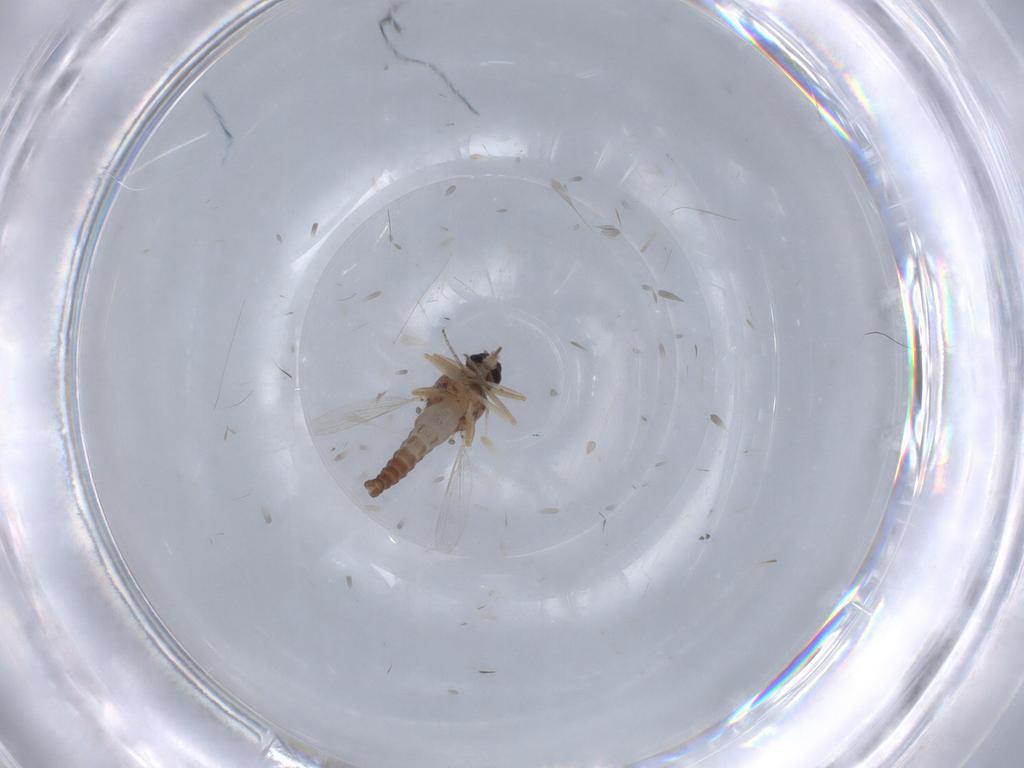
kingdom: Animalia
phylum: Arthropoda
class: Insecta
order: Diptera
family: Ceratopogonidae
